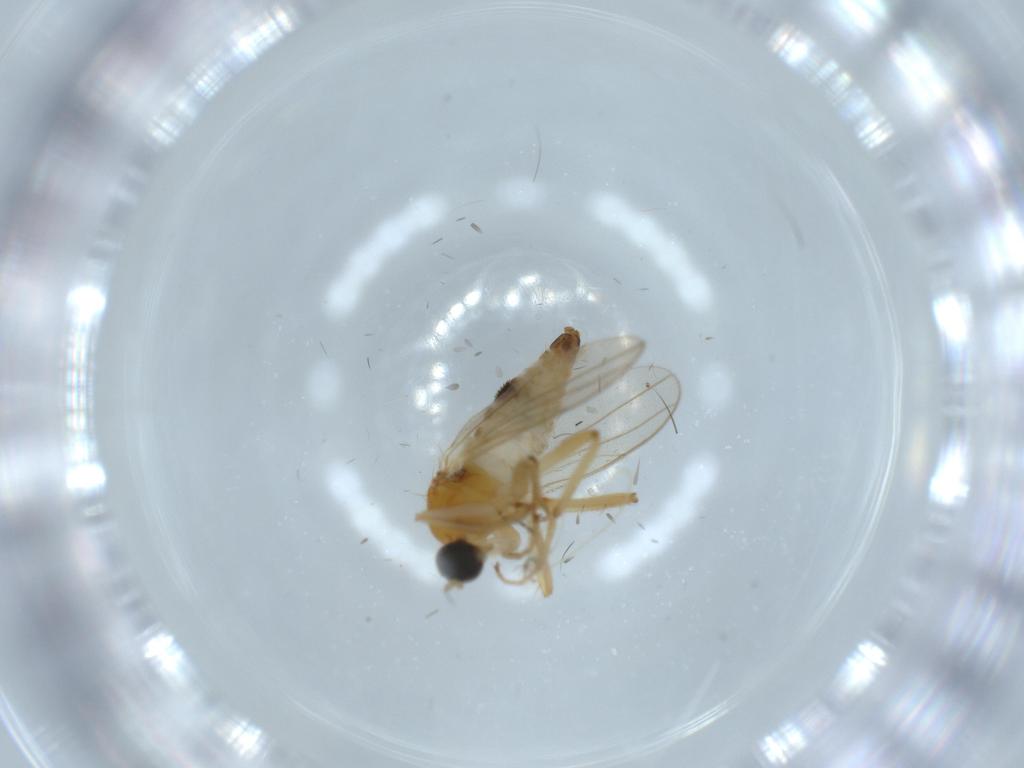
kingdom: Animalia
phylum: Arthropoda
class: Insecta
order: Diptera
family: Hybotidae
